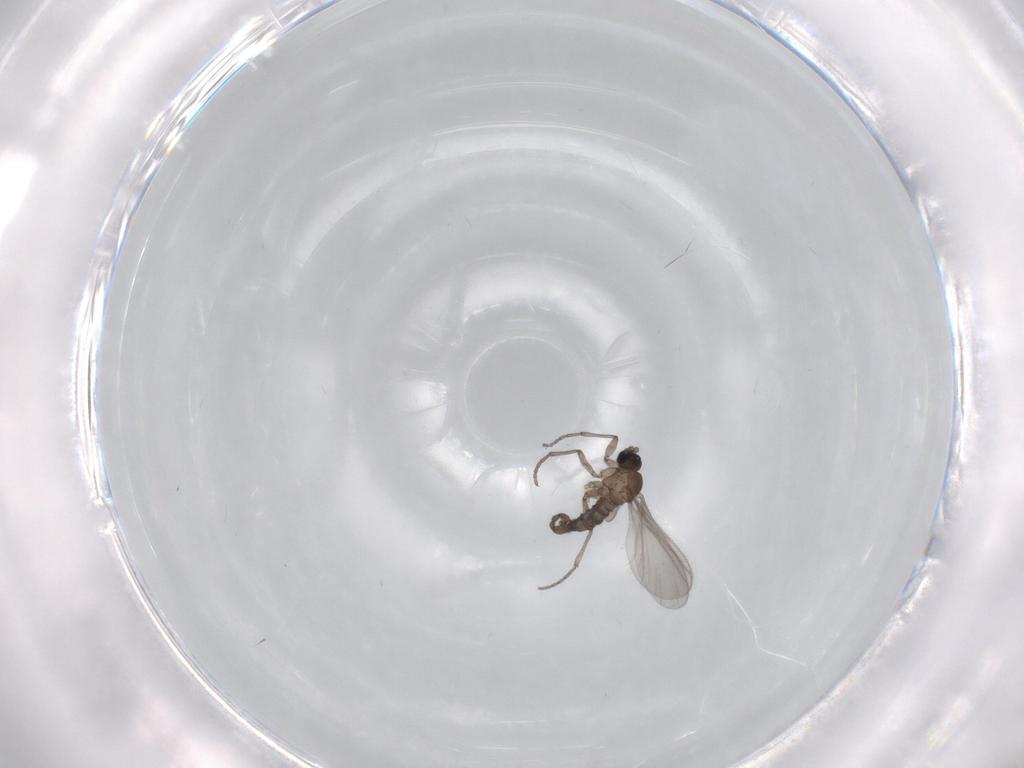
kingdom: Animalia
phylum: Arthropoda
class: Insecta
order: Diptera
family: Sciaridae
